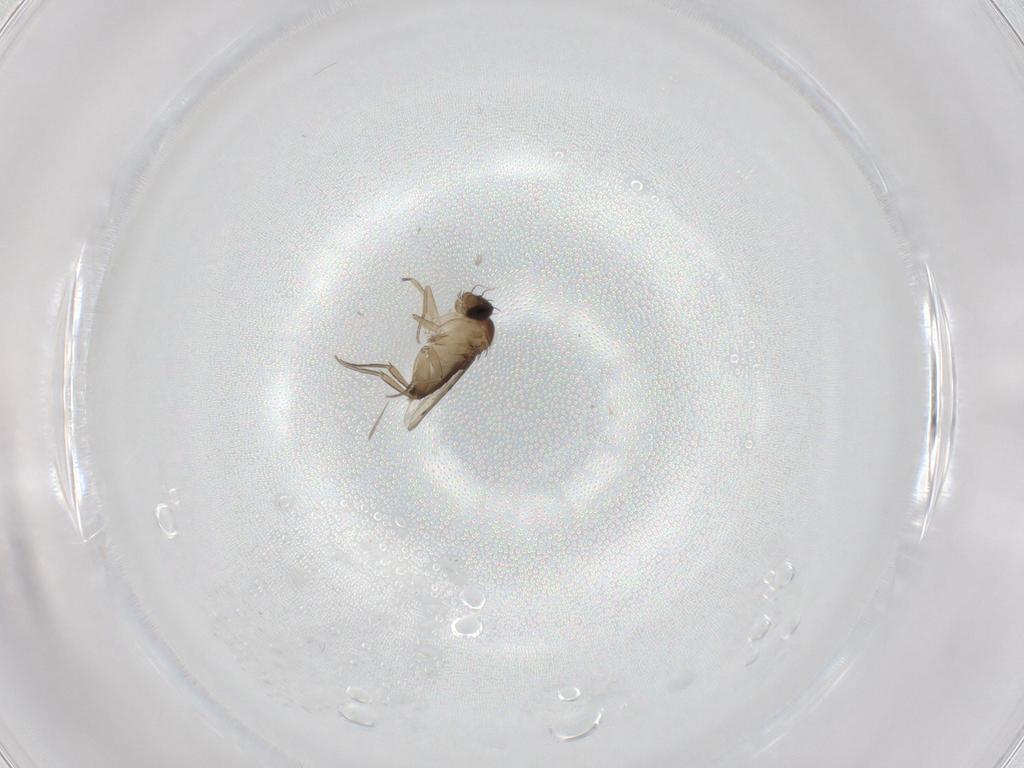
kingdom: Animalia
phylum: Arthropoda
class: Insecta
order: Diptera
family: Phoridae
